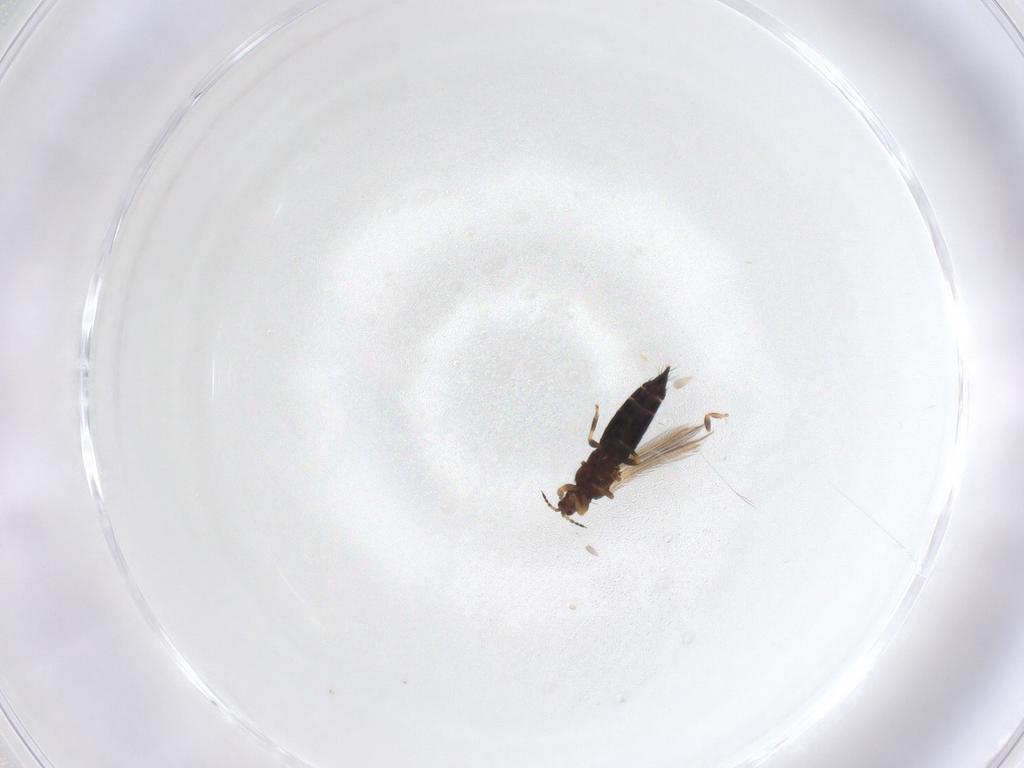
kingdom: Animalia
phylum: Arthropoda
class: Insecta
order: Thysanoptera
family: Thripidae
